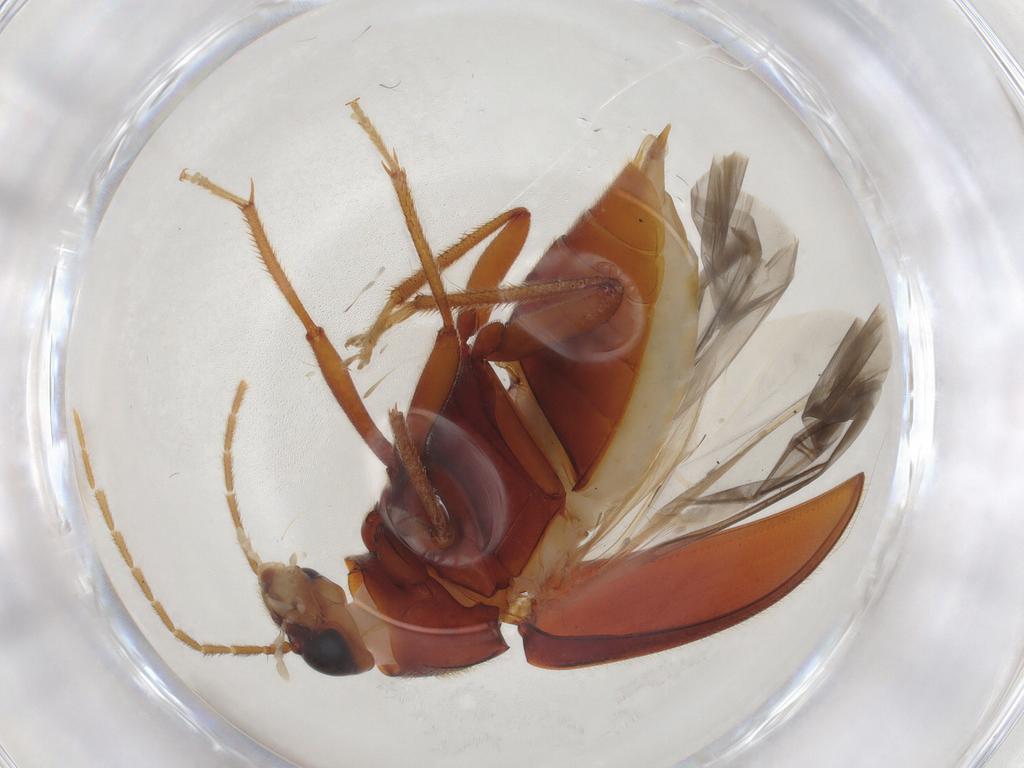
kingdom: Animalia
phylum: Arthropoda
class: Insecta
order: Coleoptera
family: Ptilodactylidae
